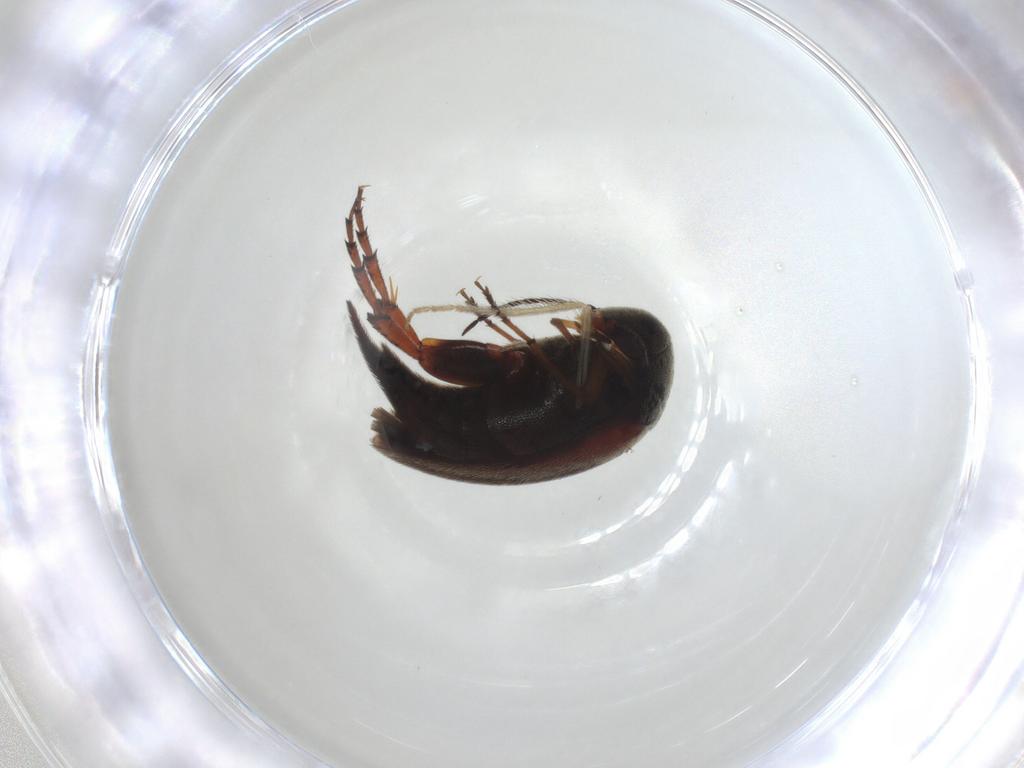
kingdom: Animalia
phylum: Arthropoda
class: Insecta
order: Coleoptera
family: Mordellidae
